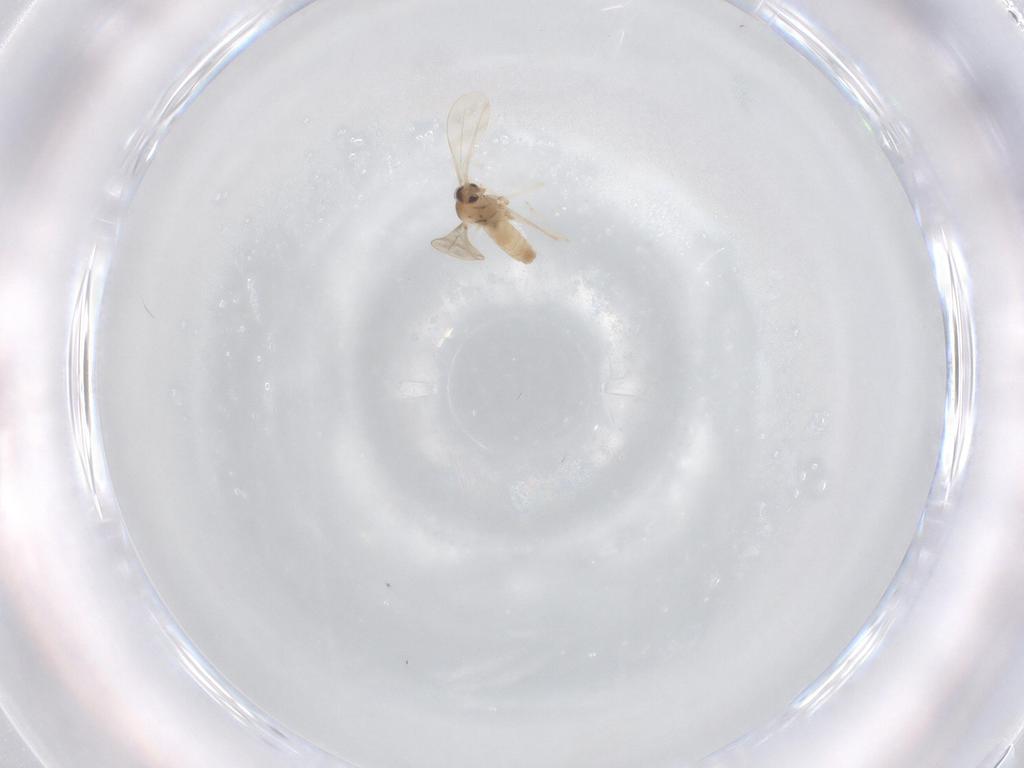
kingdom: Animalia
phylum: Arthropoda
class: Insecta
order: Diptera
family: Cecidomyiidae
